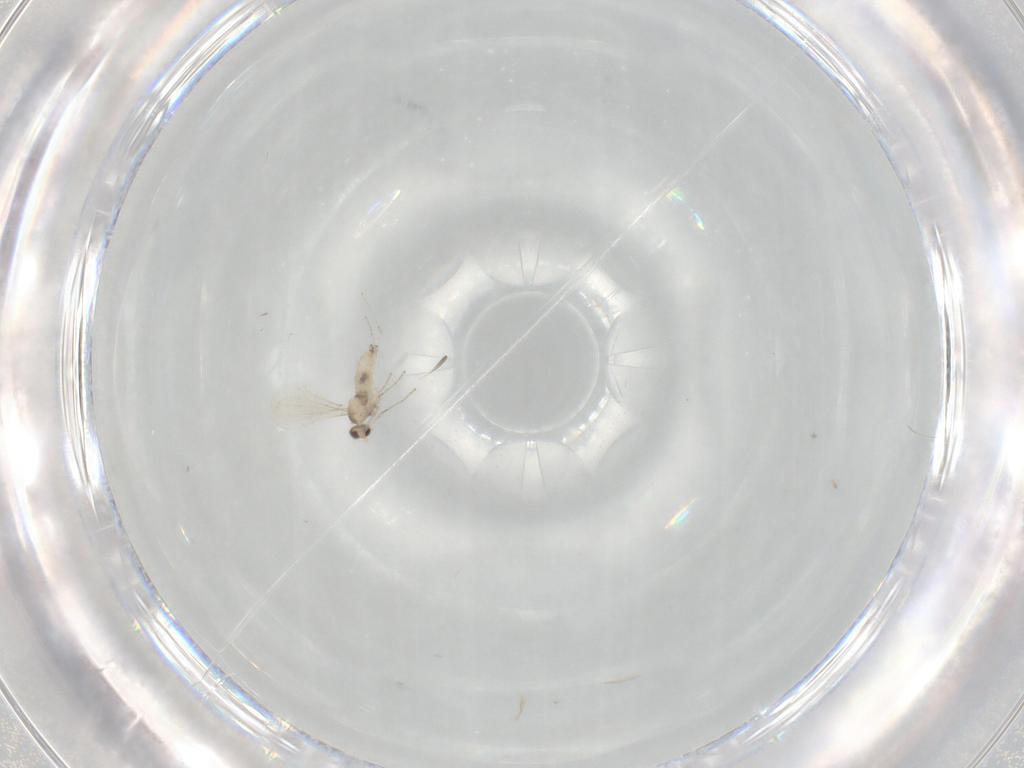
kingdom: Animalia
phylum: Arthropoda
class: Insecta
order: Diptera
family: Cecidomyiidae
